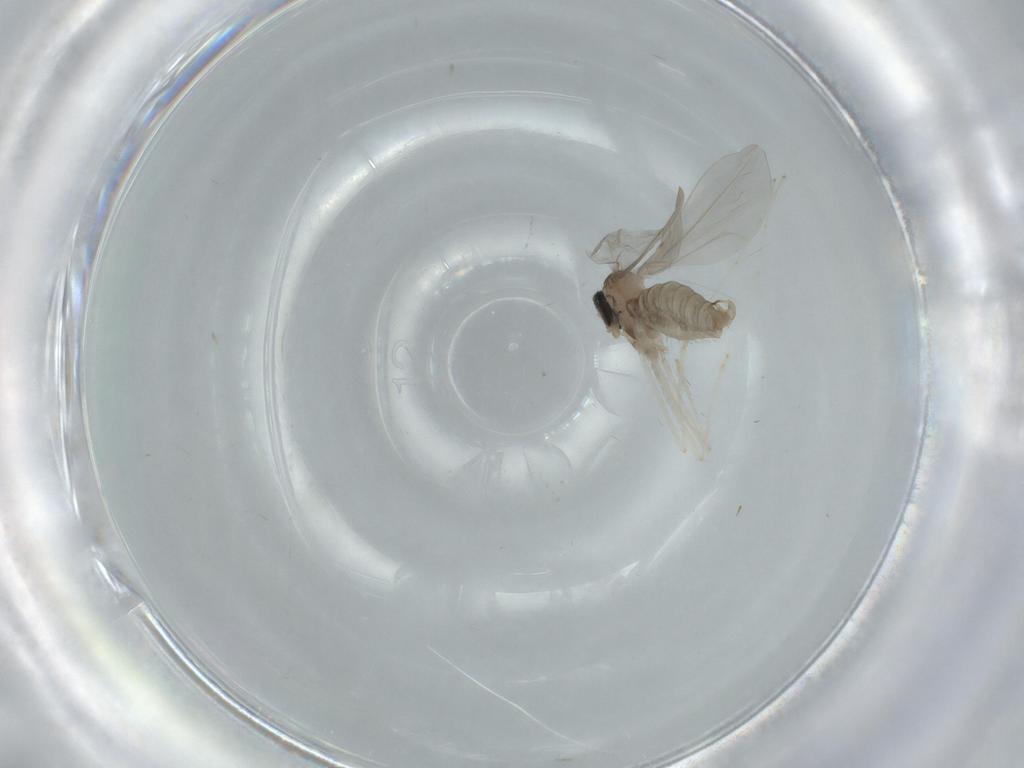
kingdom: Animalia
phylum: Arthropoda
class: Insecta
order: Diptera
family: Cecidomyiidae
